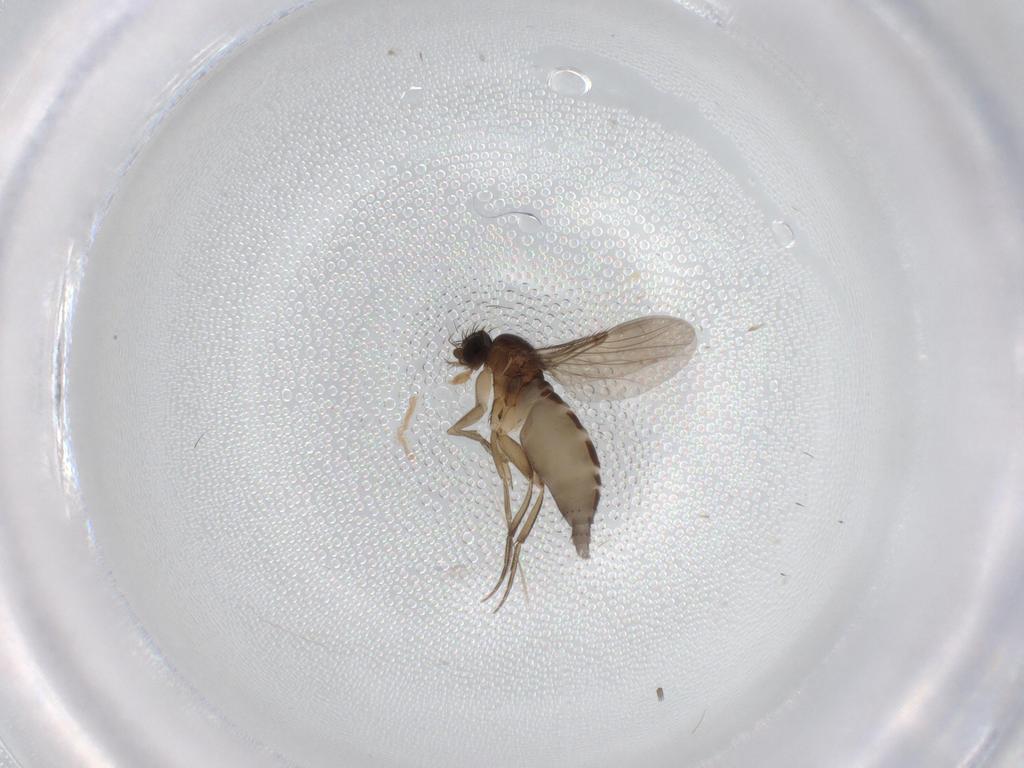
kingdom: Animalia
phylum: Arthropoda
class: Insecta
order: Diptera
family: Phoridae
